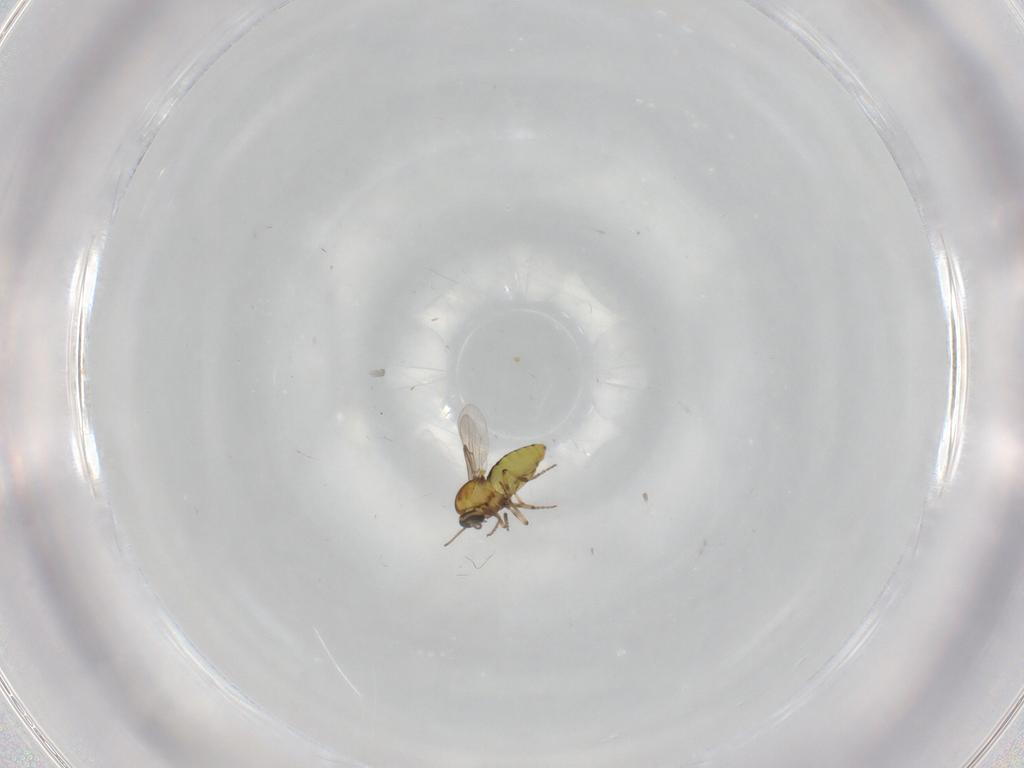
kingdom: Animalia
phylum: Arthropoda
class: Insecta
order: Diptera
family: Ceratopogonidae
